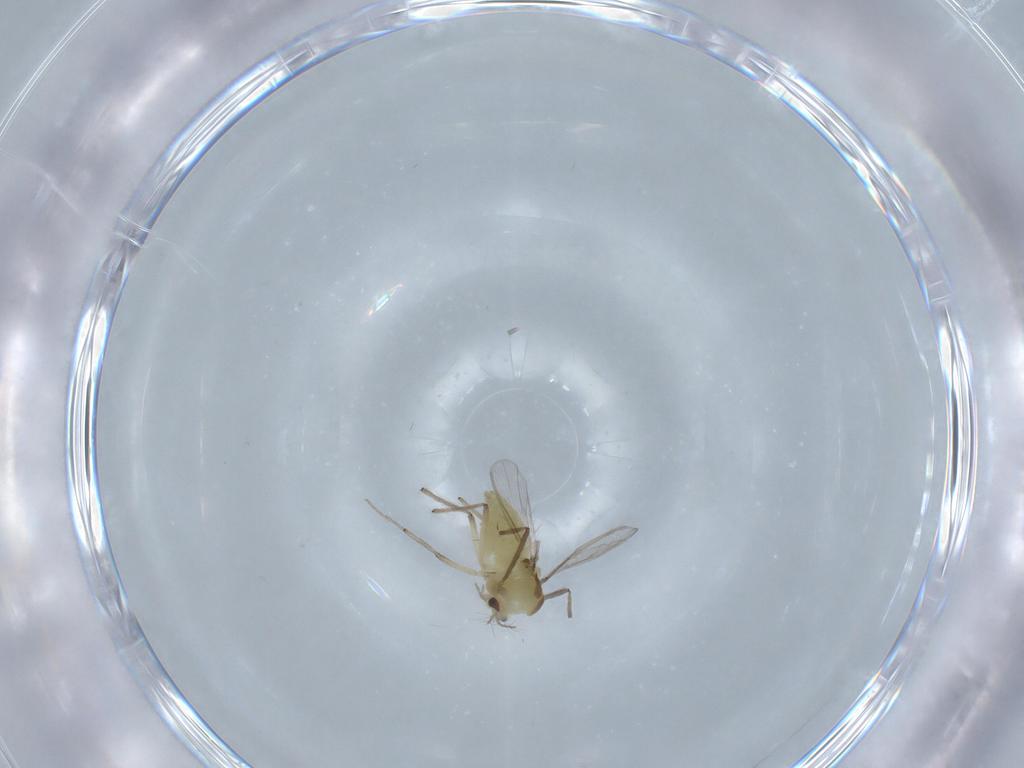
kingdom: Animalia
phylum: Arthropoda
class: Insecta
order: Diptera
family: Chironomidae
